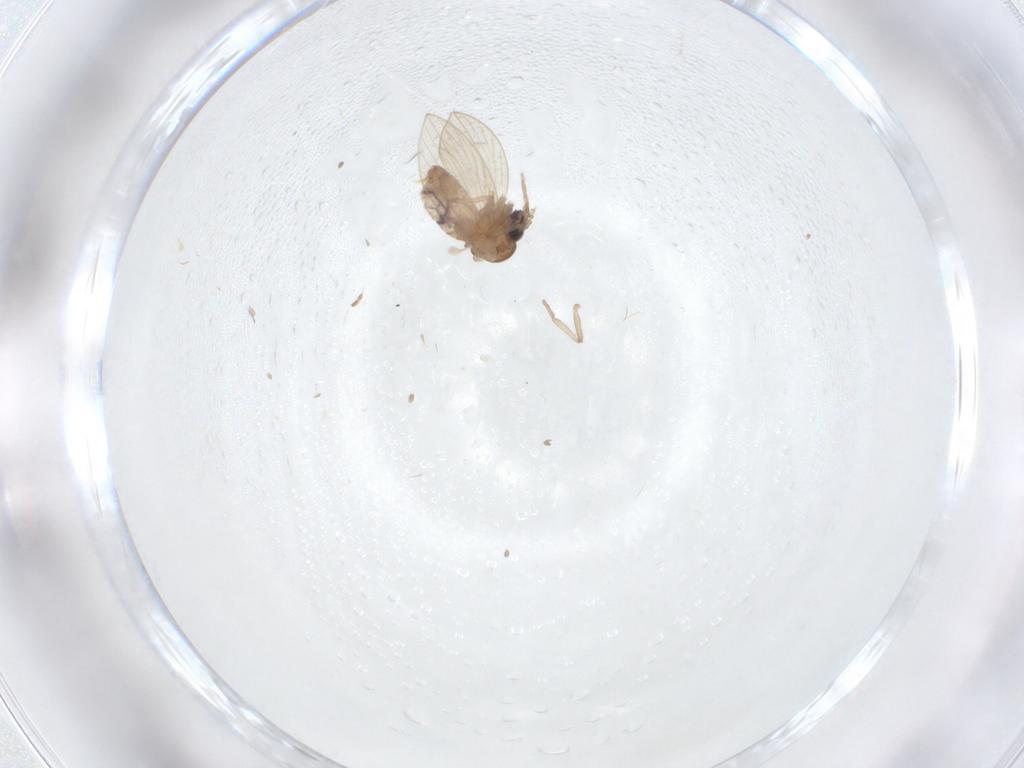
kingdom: Animalia
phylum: Arthropoda
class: Insecta
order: Diptera
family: Psychodidae
